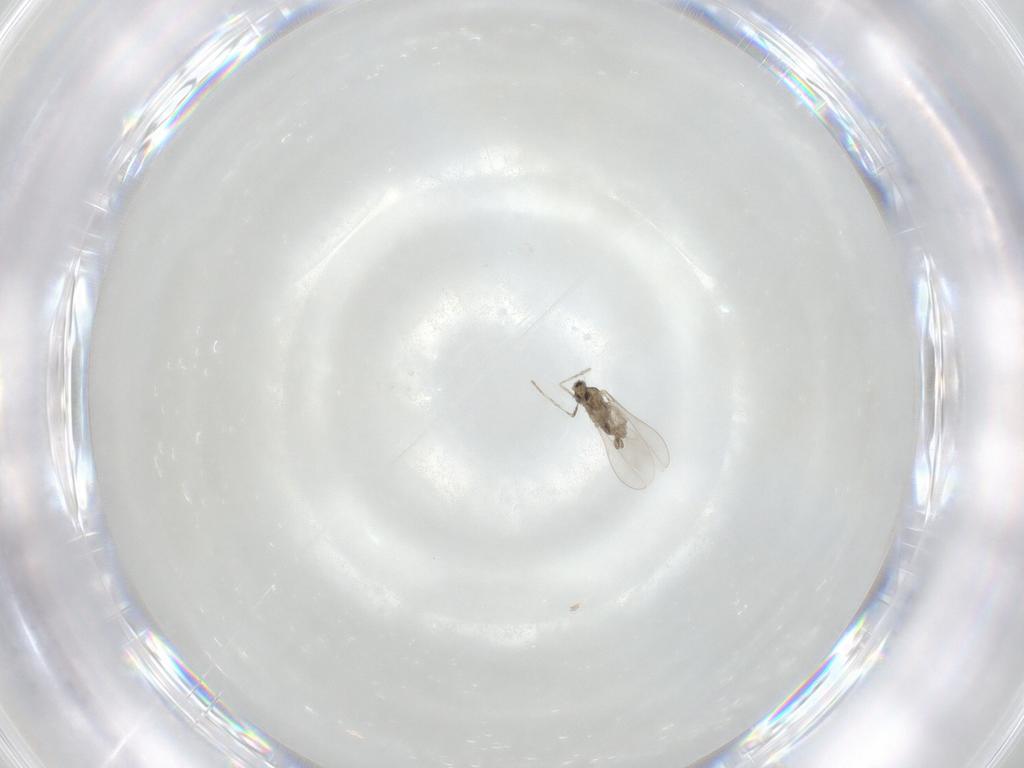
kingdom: Animalia
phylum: Arthropoda
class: Insecta
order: Diptera
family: Cecidomyiidae
